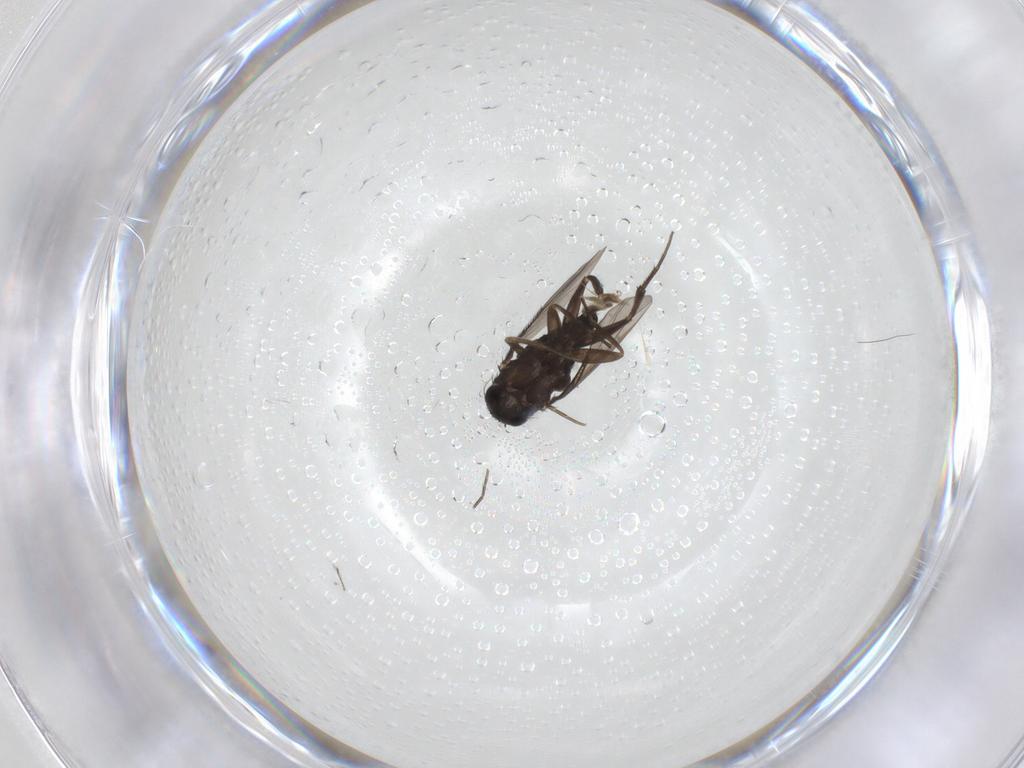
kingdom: Animalia
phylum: Arthropoda
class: Insecta
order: Diptera
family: Phoridae
